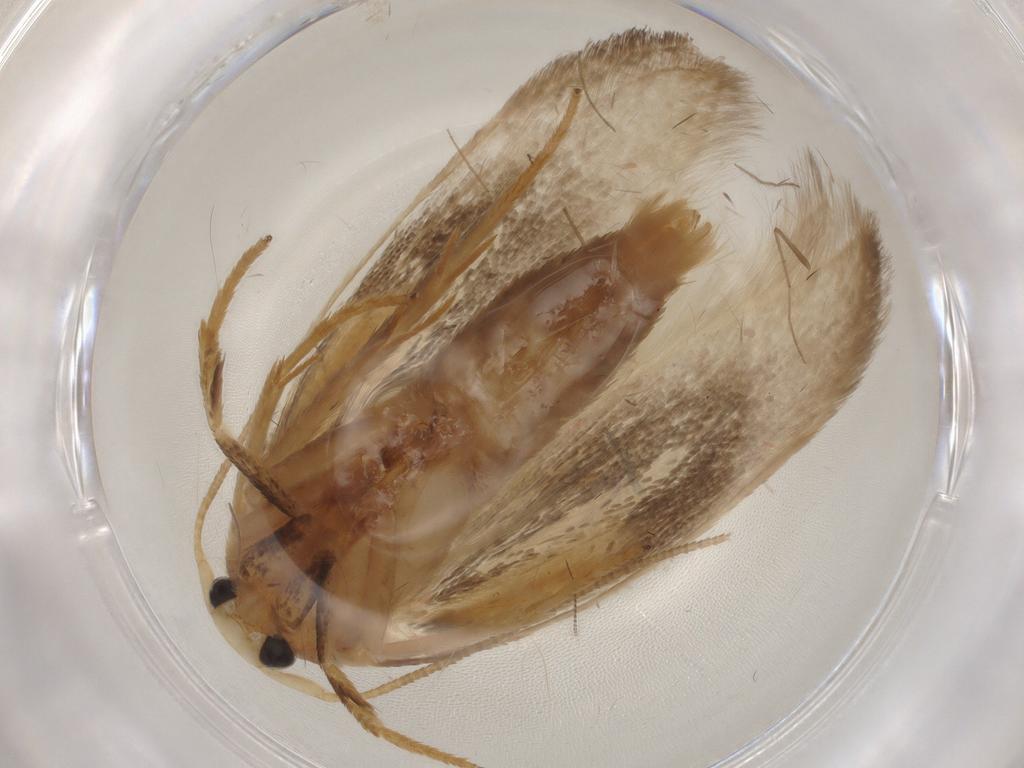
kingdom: Animalia
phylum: Arthropoda
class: Insecta
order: Lepidoptera
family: Geometridae
